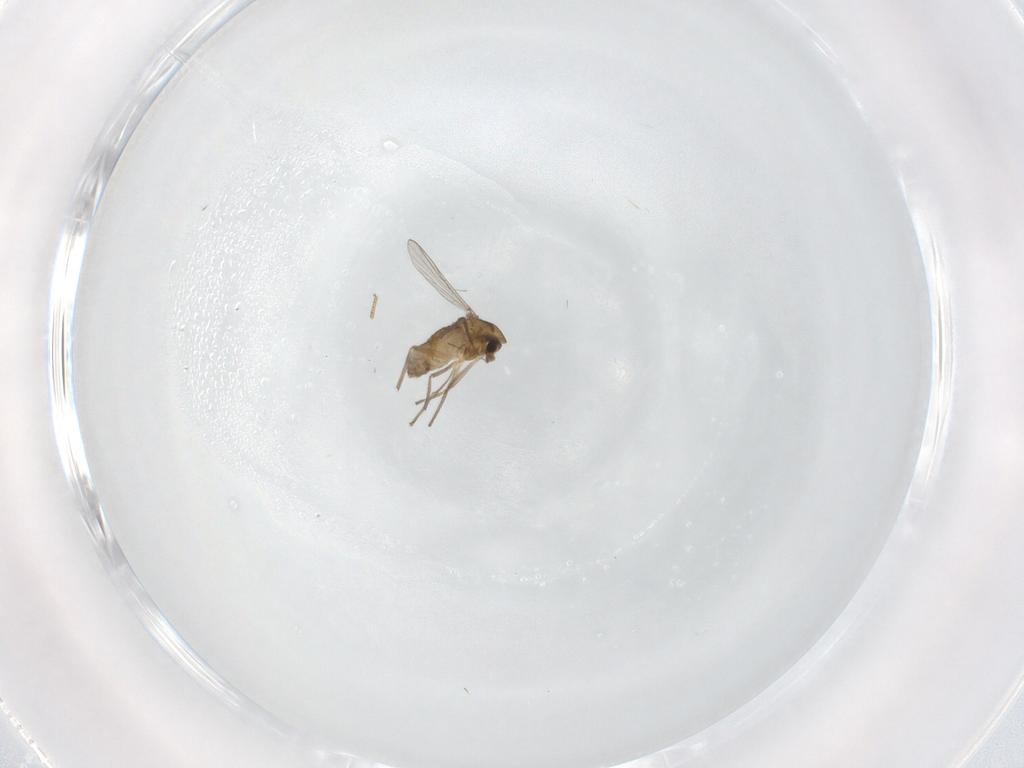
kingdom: Animalia
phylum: Arthropoda
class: Insecta
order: Diptera
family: Chironomidae
